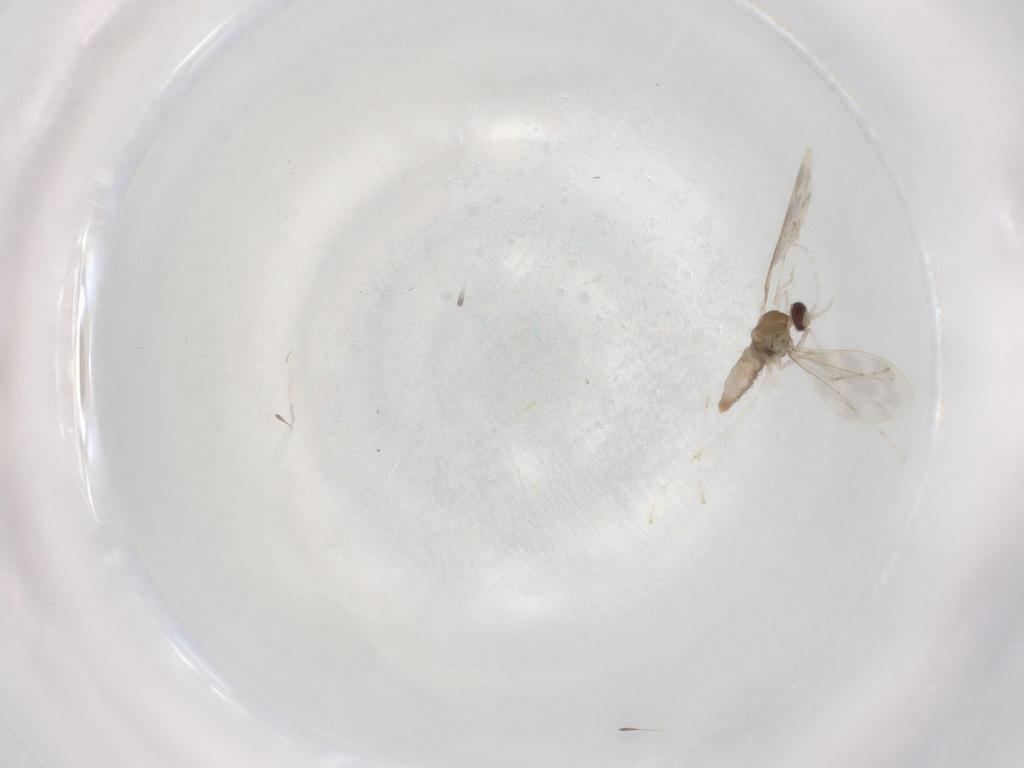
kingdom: Animalia
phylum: Arthropoda
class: Insecta
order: Diptera
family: Cecidomyiidae
